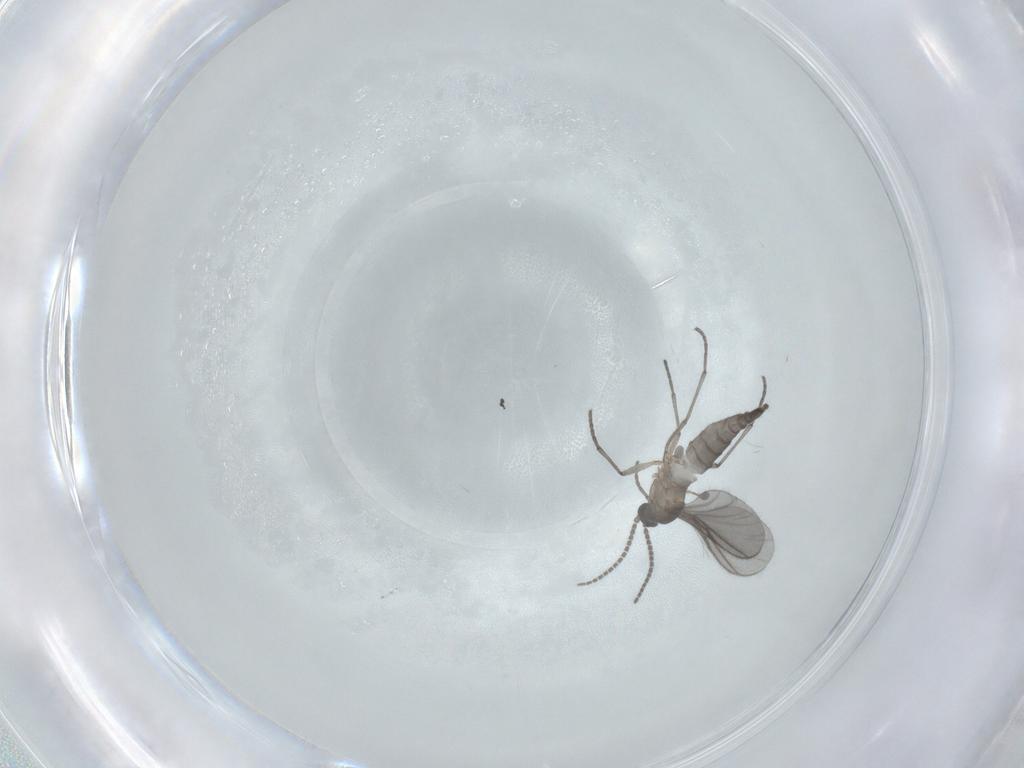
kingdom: Animalia
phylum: Arthropoda
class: Insecta
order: Diptera
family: Sciaridae
